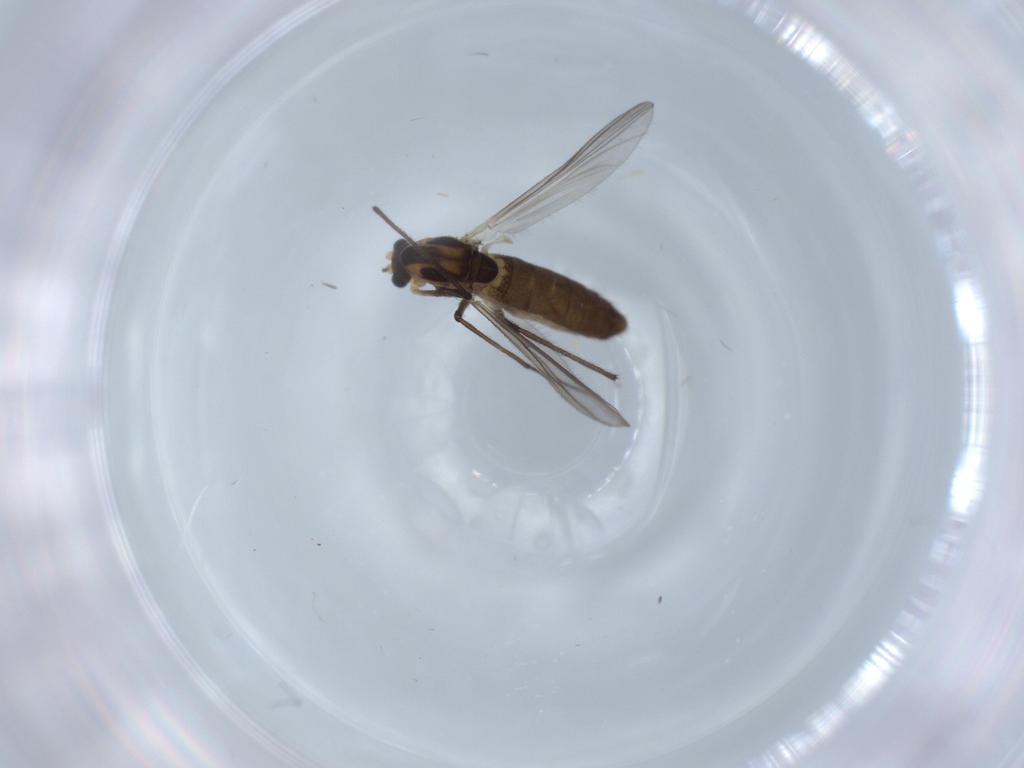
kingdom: Animalia
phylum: Arthropoda
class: Insecta
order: Diptera
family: Chironomidae
